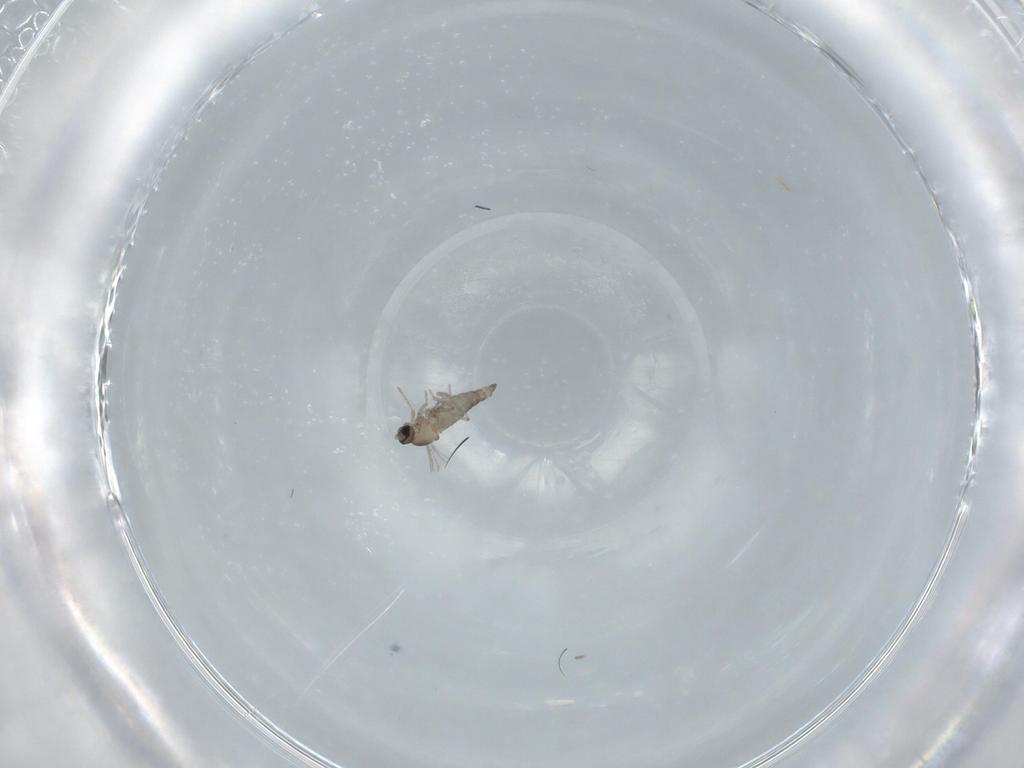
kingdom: Animalia
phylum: Arthropoda
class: Insecta
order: Diptera
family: Cecidomyiidae
